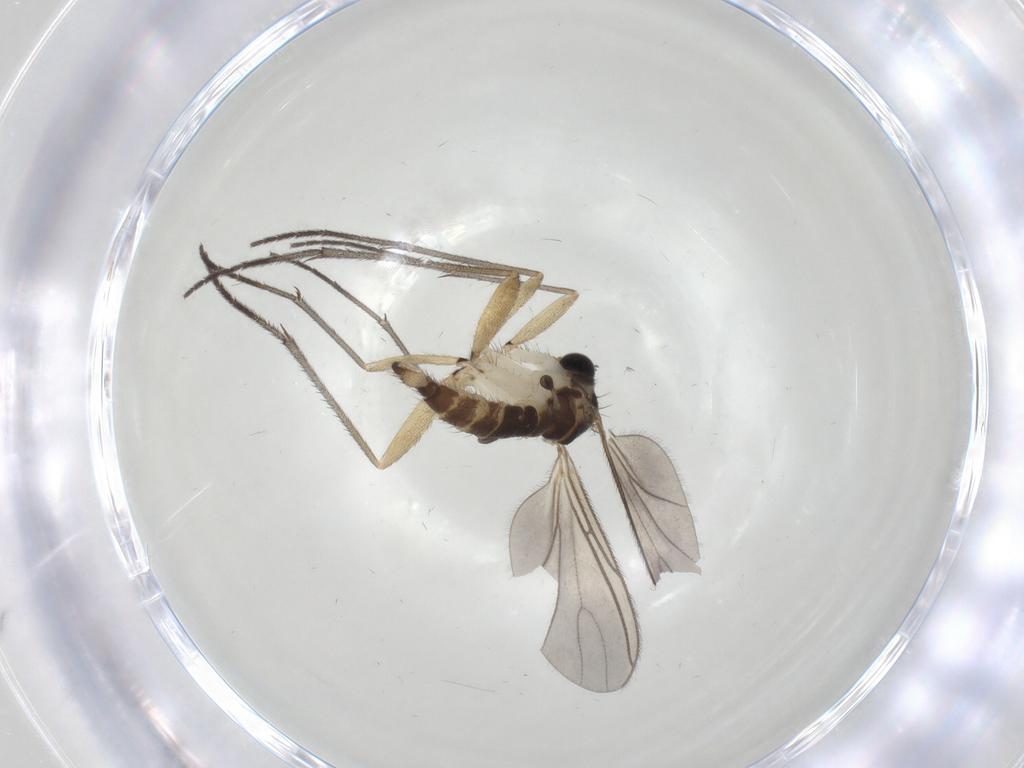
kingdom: Animalia
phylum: Arthropoda
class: Insecta
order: Diptera
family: Sciaridae
